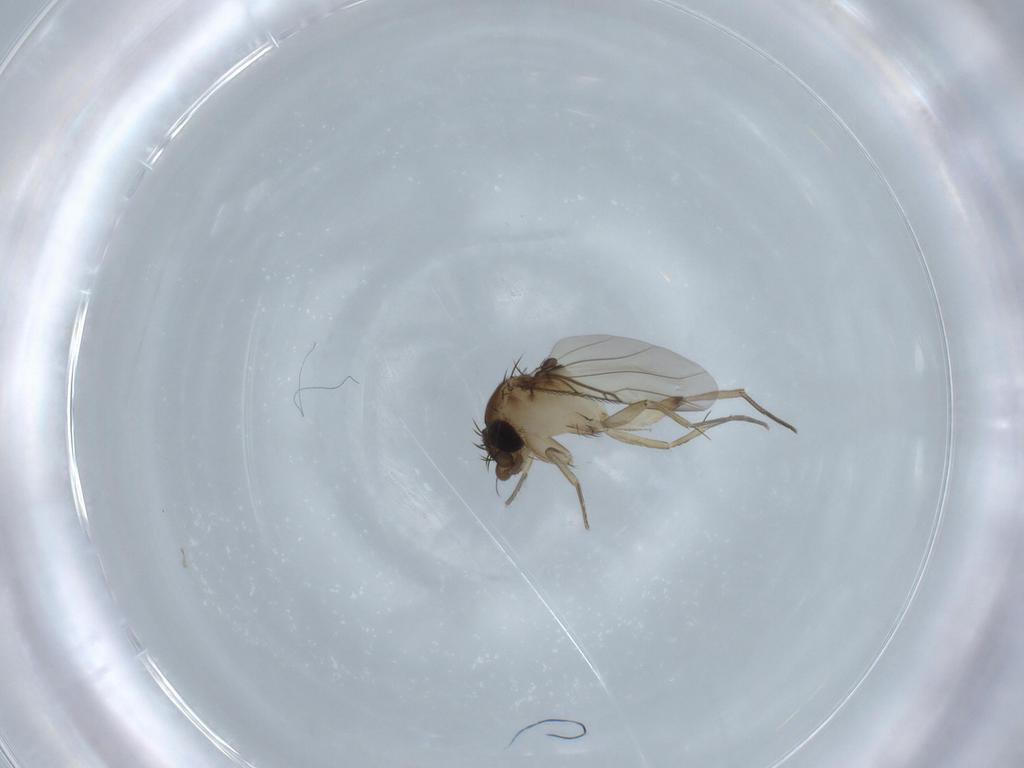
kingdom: Animalia
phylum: Arthropoda
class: Insecta
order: Diptera
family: Phoridae
